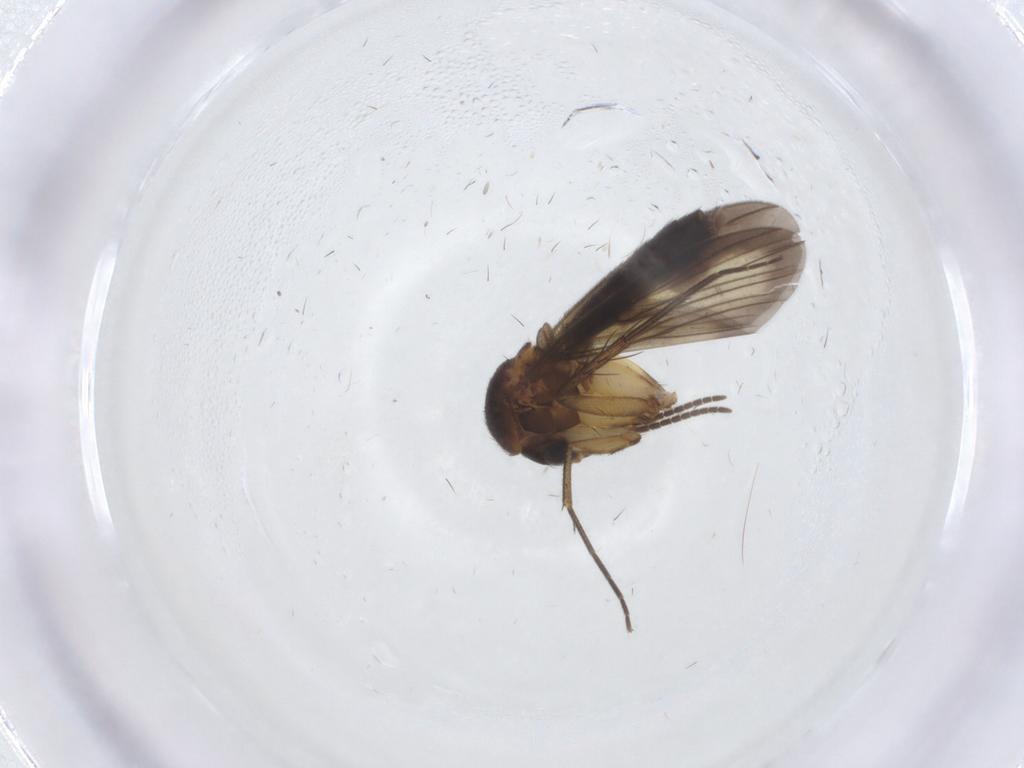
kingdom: Animalia
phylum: Arthropoda
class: Insecta
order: Diptera
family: Mycetophilidae
